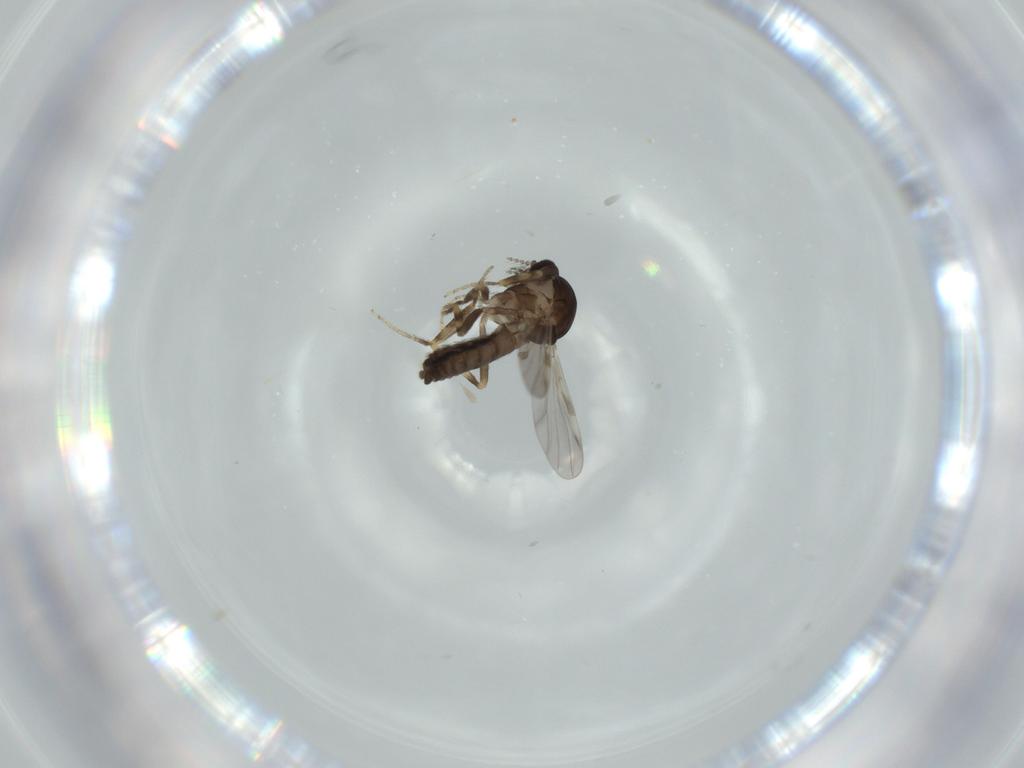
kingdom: Animalia
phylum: Arthropoda
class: Insecta
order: Diptera
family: Ceratopogonidae
